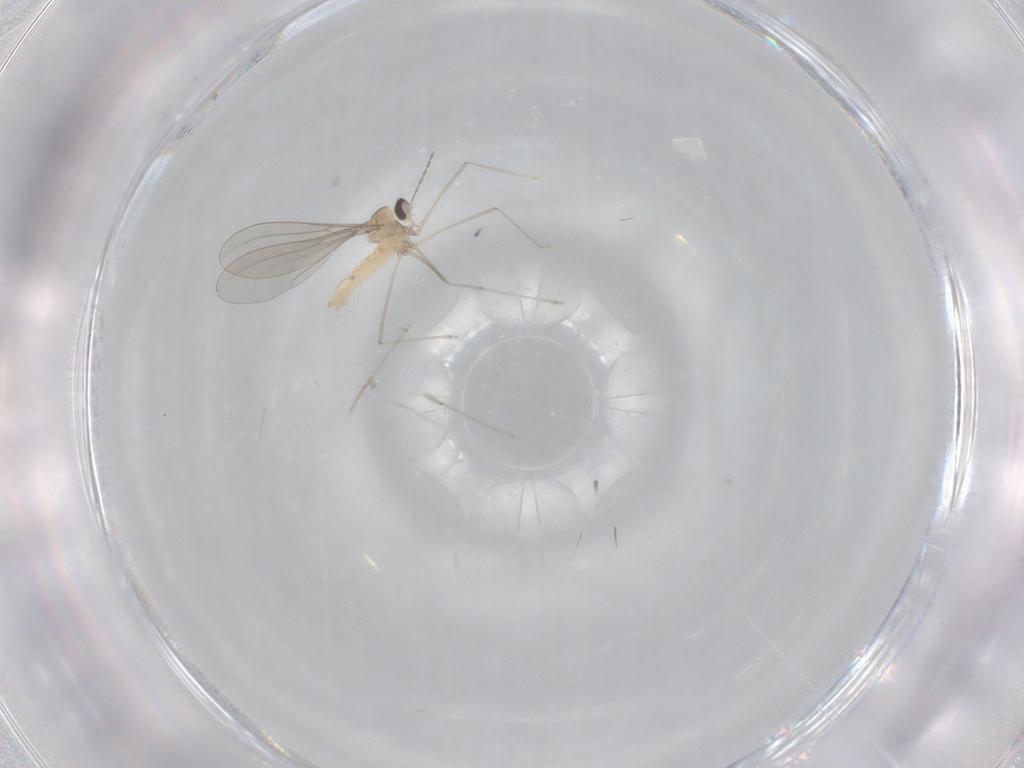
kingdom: Animalia
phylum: Arthropoda
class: Insecta
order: Diptera
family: Cecidomyiidae
